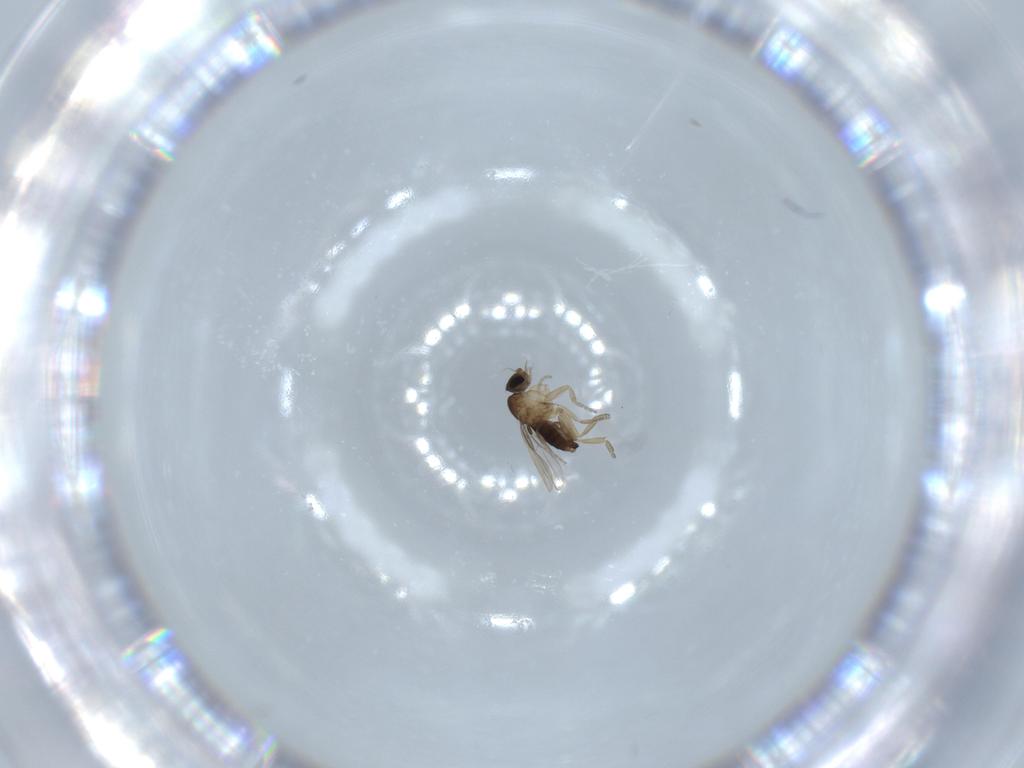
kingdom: Animalia
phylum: Arthropoda
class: Insecta
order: Diptera
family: Phoridae
